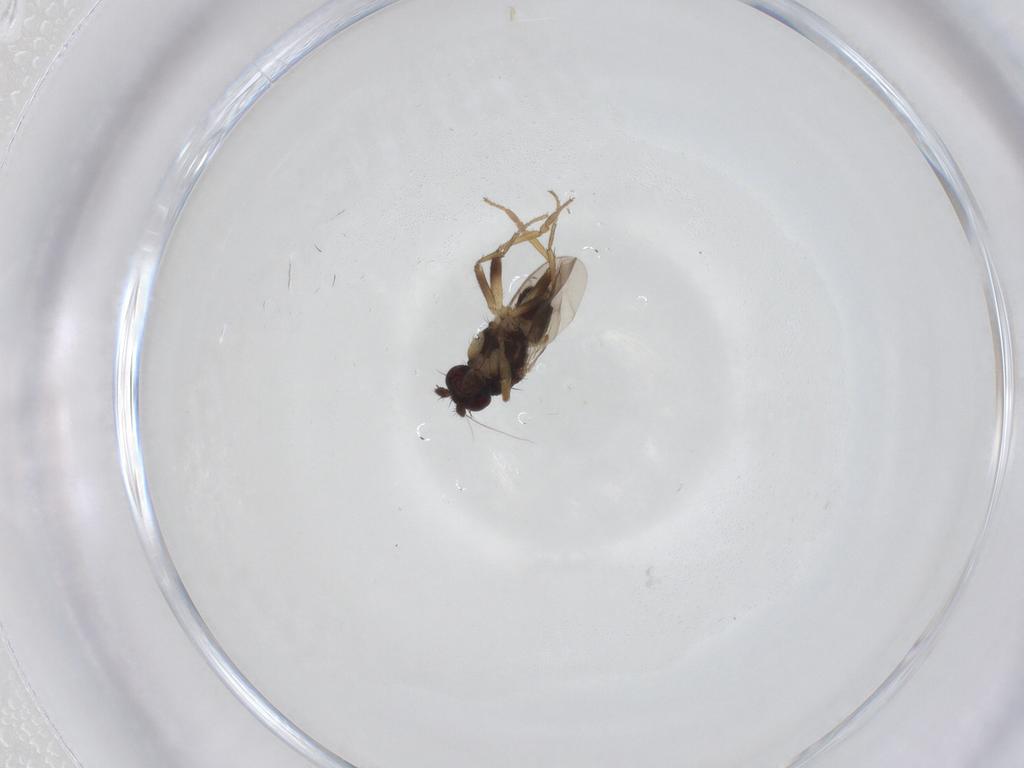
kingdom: Animalia
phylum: Arthropoda
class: Insecta
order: Diptera
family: Sphaeroceridae
